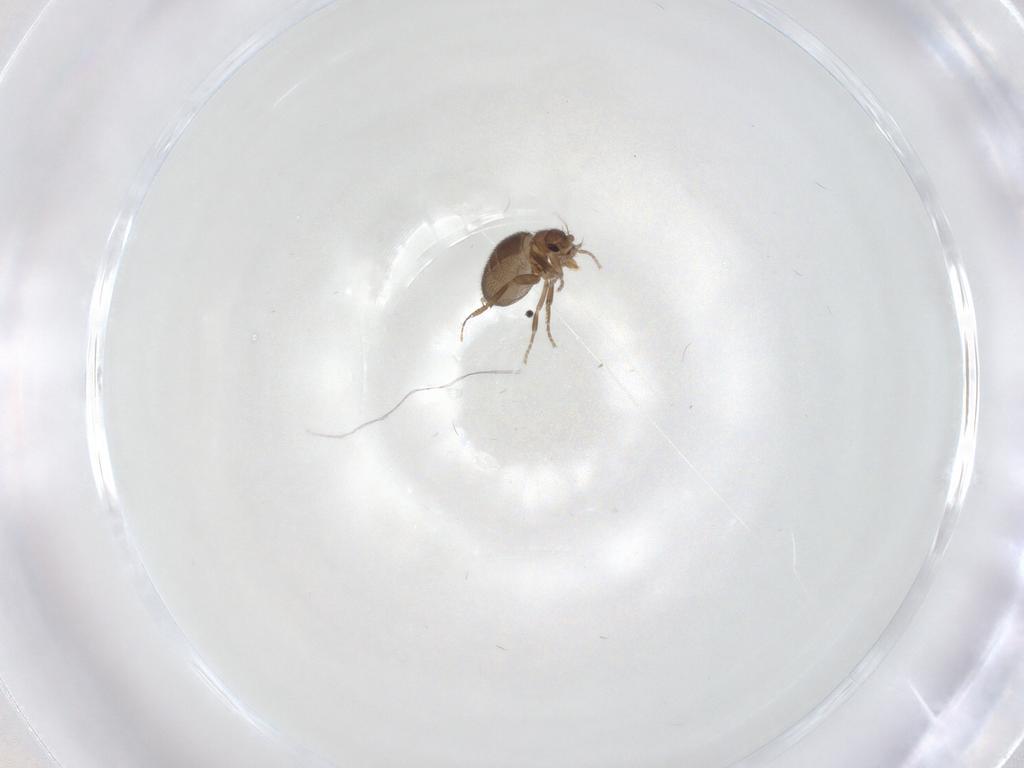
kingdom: Animalia
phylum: Arthropoda
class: Insecta
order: Diptera
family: Phoridae
